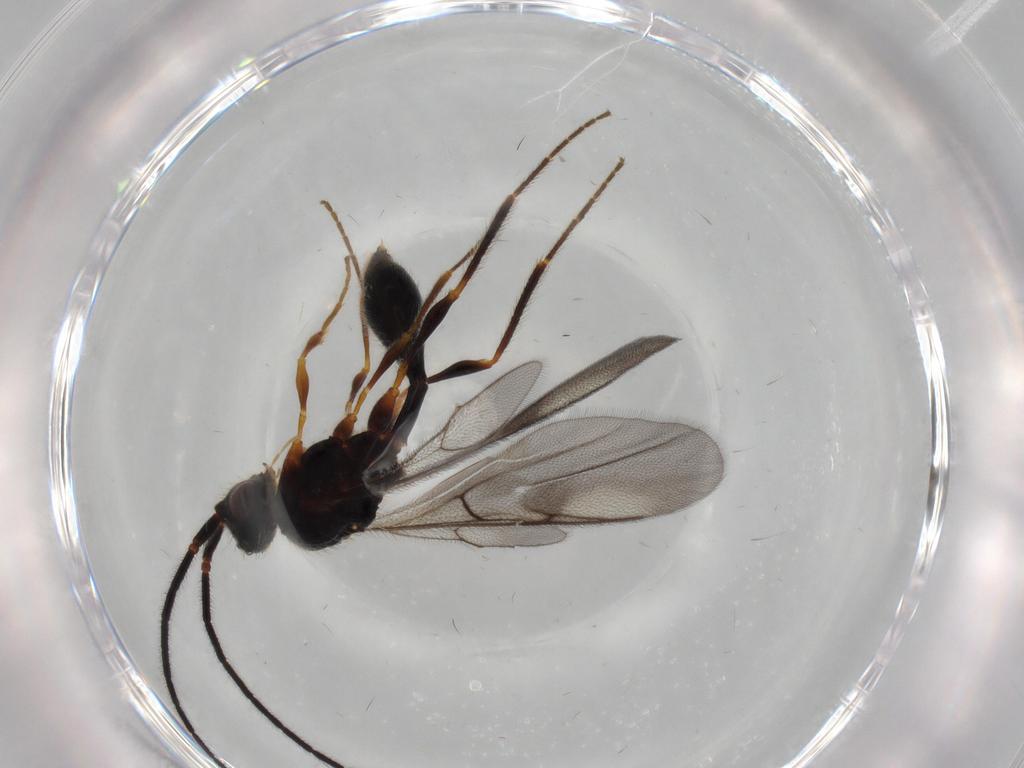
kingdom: Animalia
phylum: Arthropoda
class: Insecta
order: Hymenoptera
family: Diapriidae
